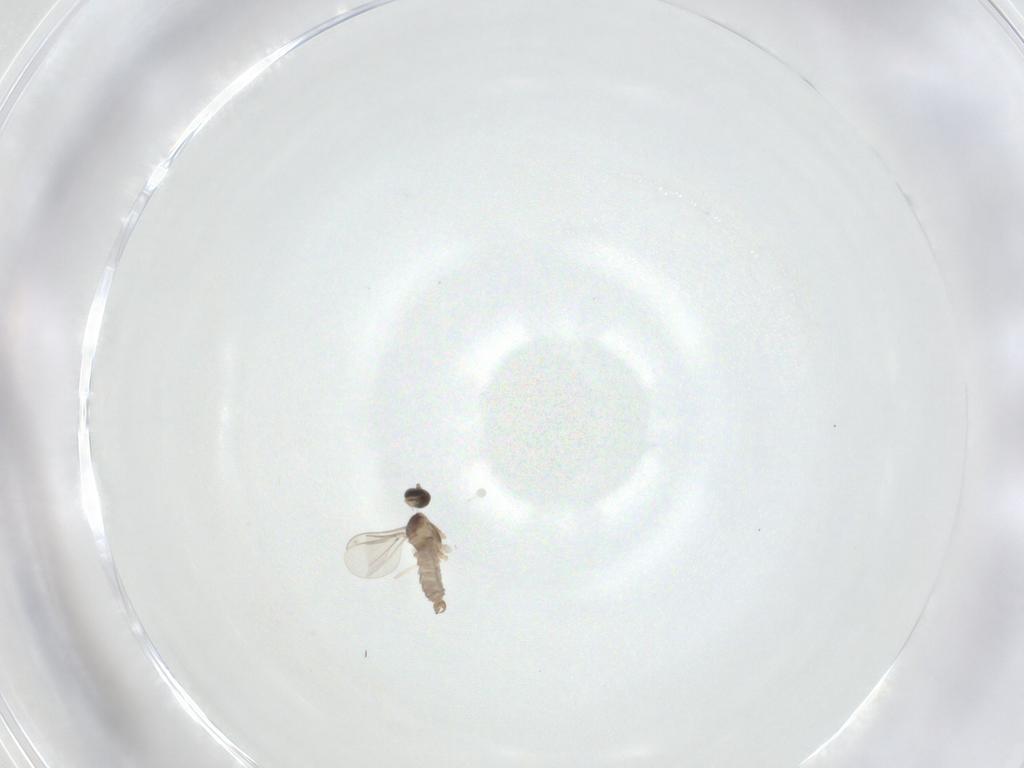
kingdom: Animalia
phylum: Arthropoda
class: Insecta
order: Diptera
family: Cecidomyiidae
